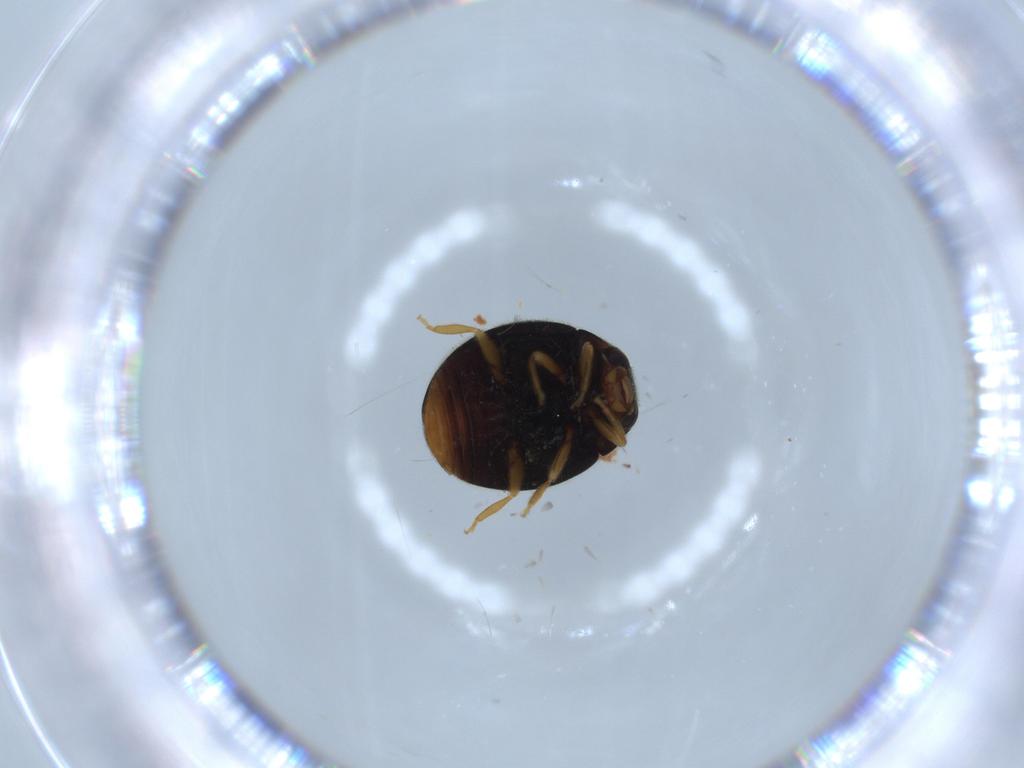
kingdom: Animalia
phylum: Arthropoda
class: Insecta
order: Coleoptera
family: Coccinellidae
